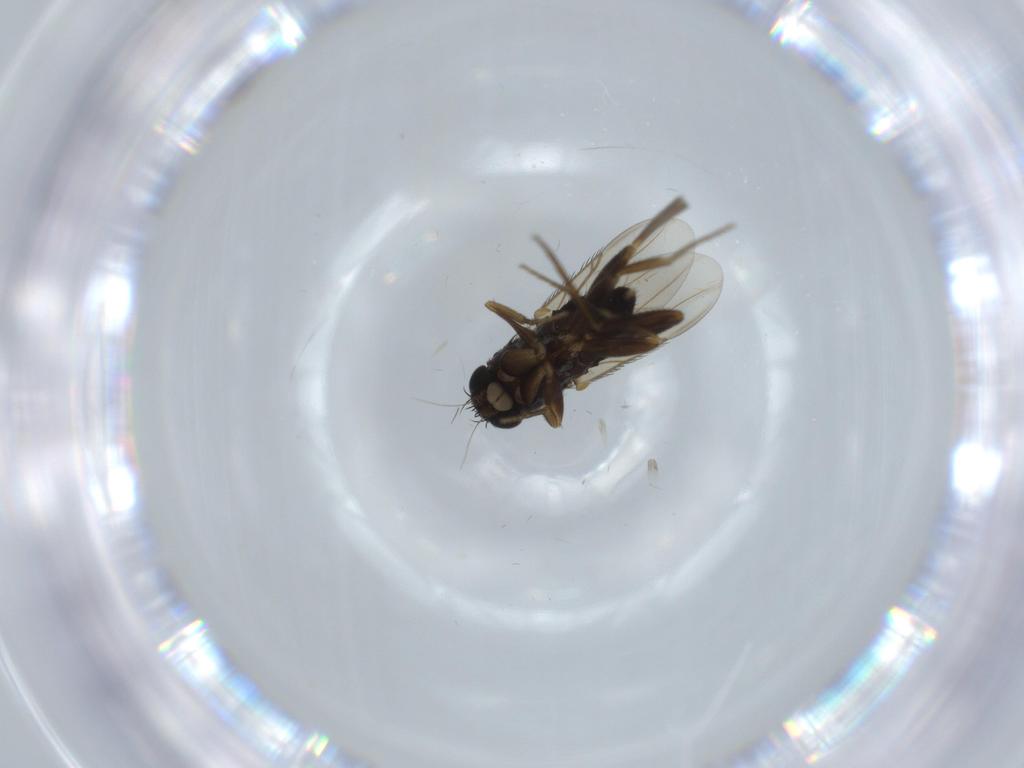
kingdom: Animalia
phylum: Arthropoda
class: Insecta
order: Diptera
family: Phoridae
